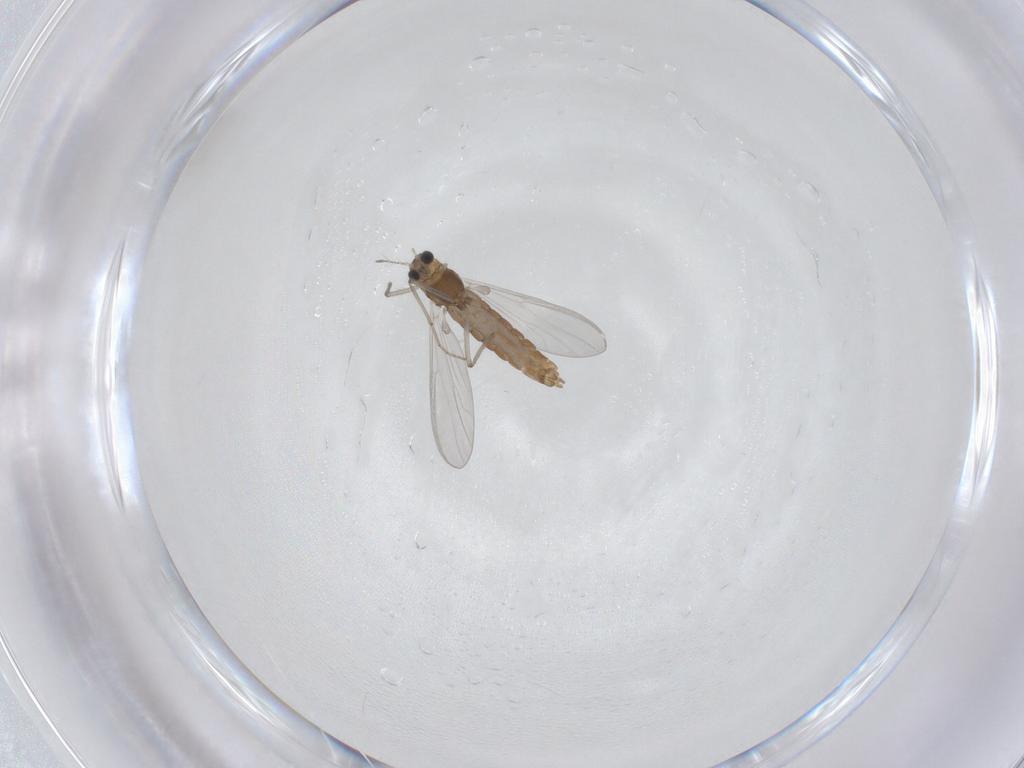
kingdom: Animalia
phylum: Arthropoda
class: Insecta
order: Diptera
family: Chironomidae
